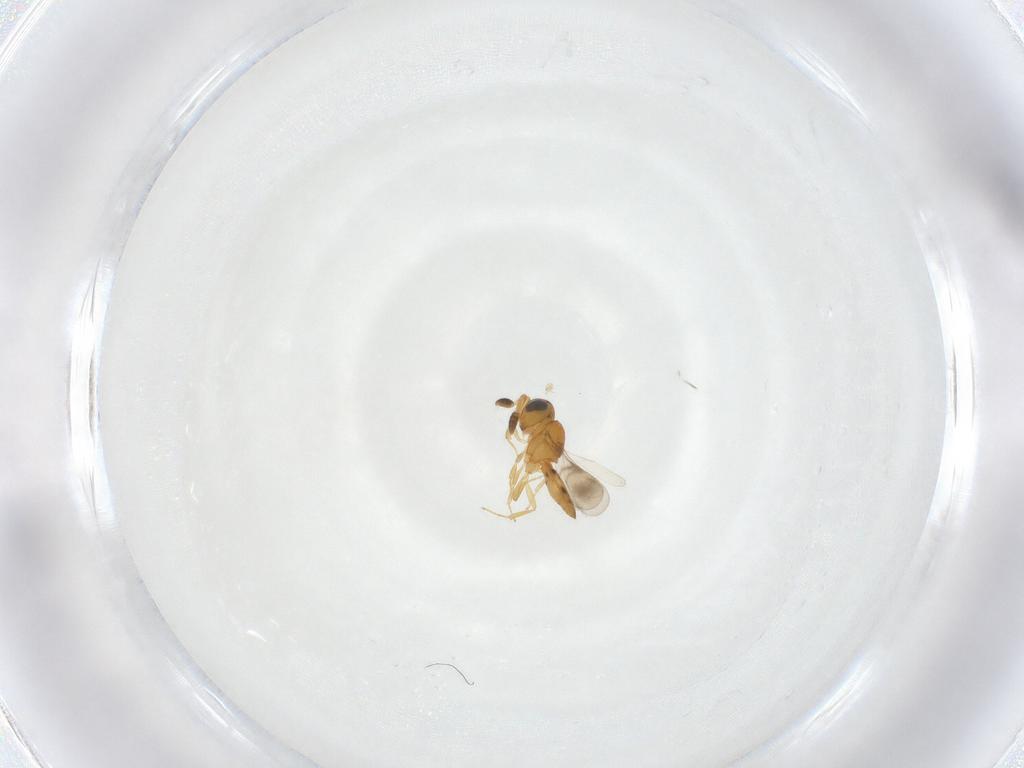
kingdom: Animalia
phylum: Arthropoda
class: Insecta
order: Hymenoptera
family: Scelionidae
